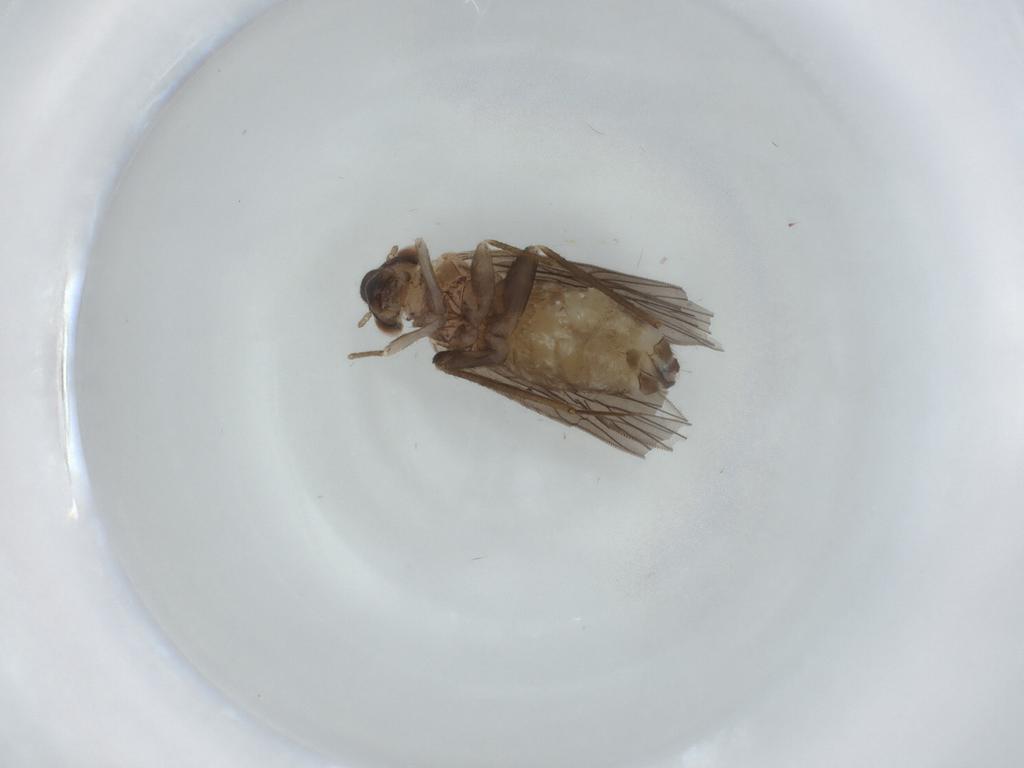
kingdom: Animalia
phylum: Arthropoda
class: Insecta
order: Psocodea
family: Lepidopsocidae
